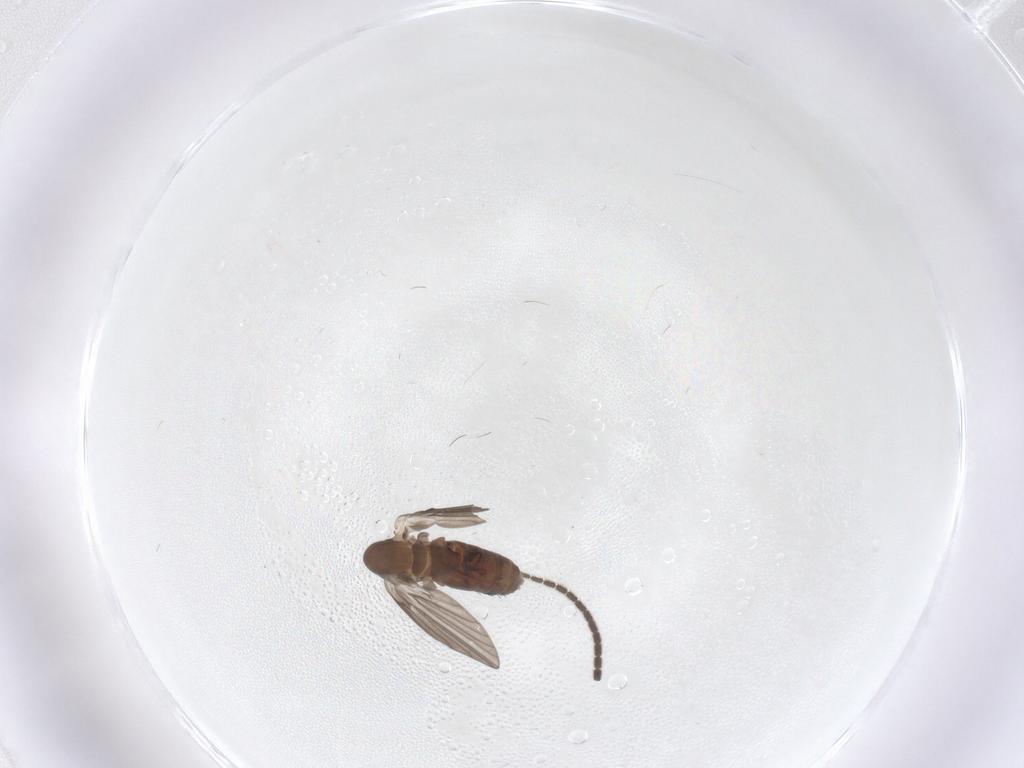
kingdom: Animalia
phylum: Arthropoda
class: Insecta
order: Diptera
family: Sciaridae
